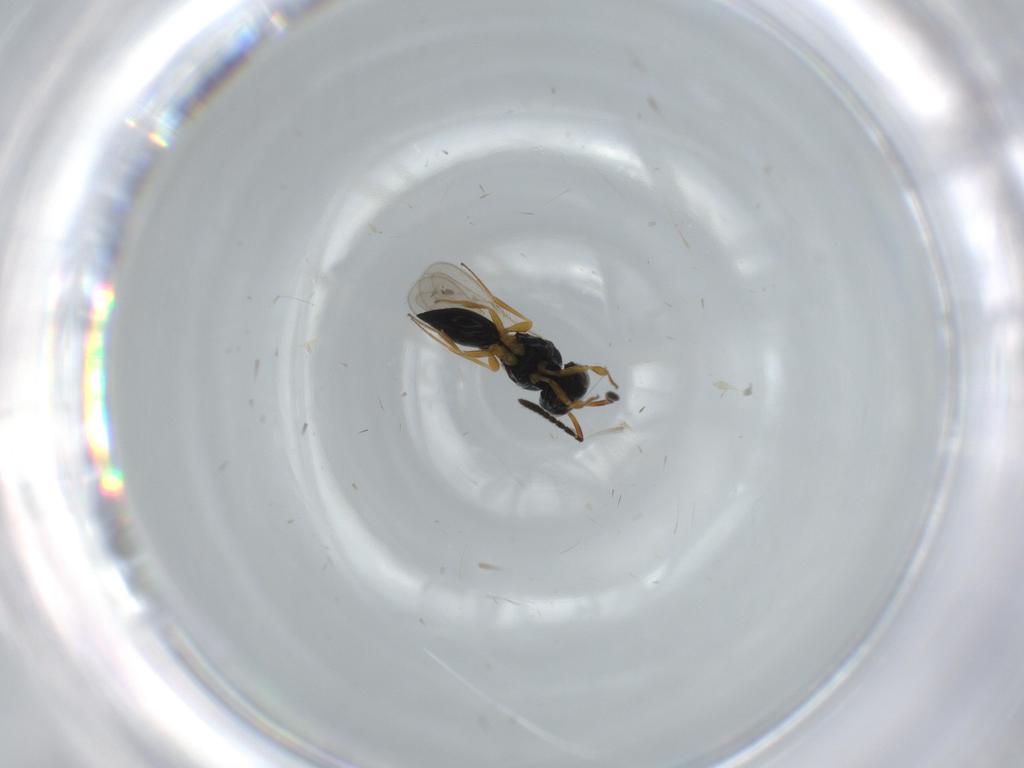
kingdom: Animalia
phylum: Arthropoda
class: Insecta
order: Hymenoptera
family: Scelionidae
